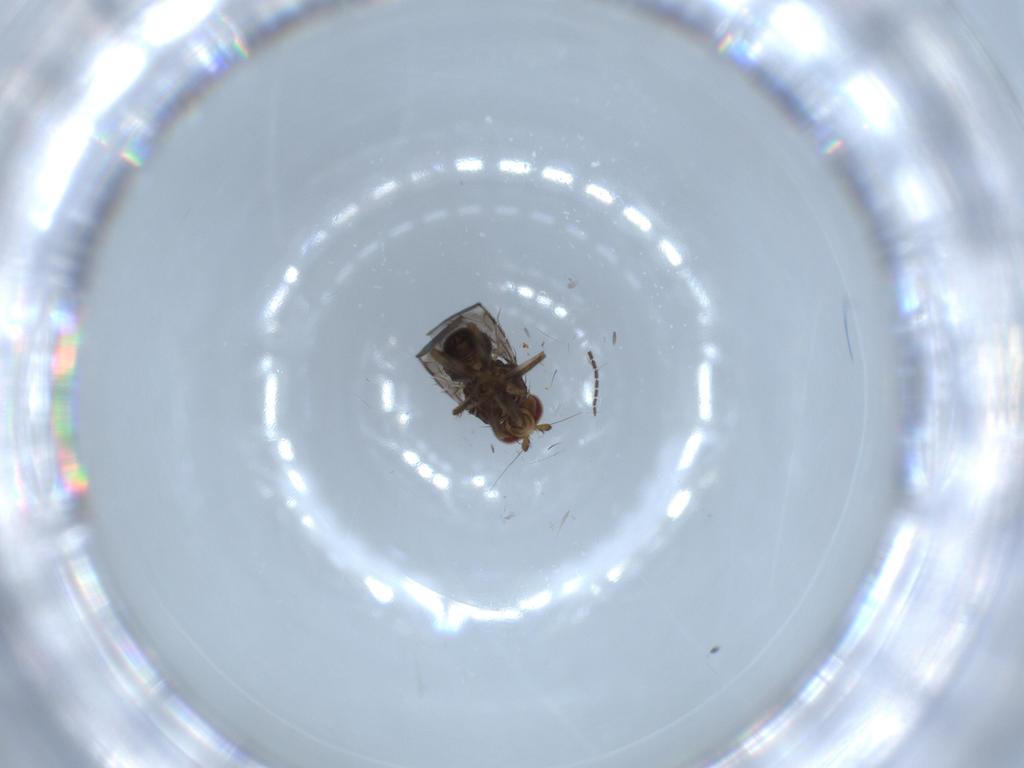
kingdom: Animalia
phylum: Arthropoda
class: Insecta
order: Diptera
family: Sphaeroceridae
